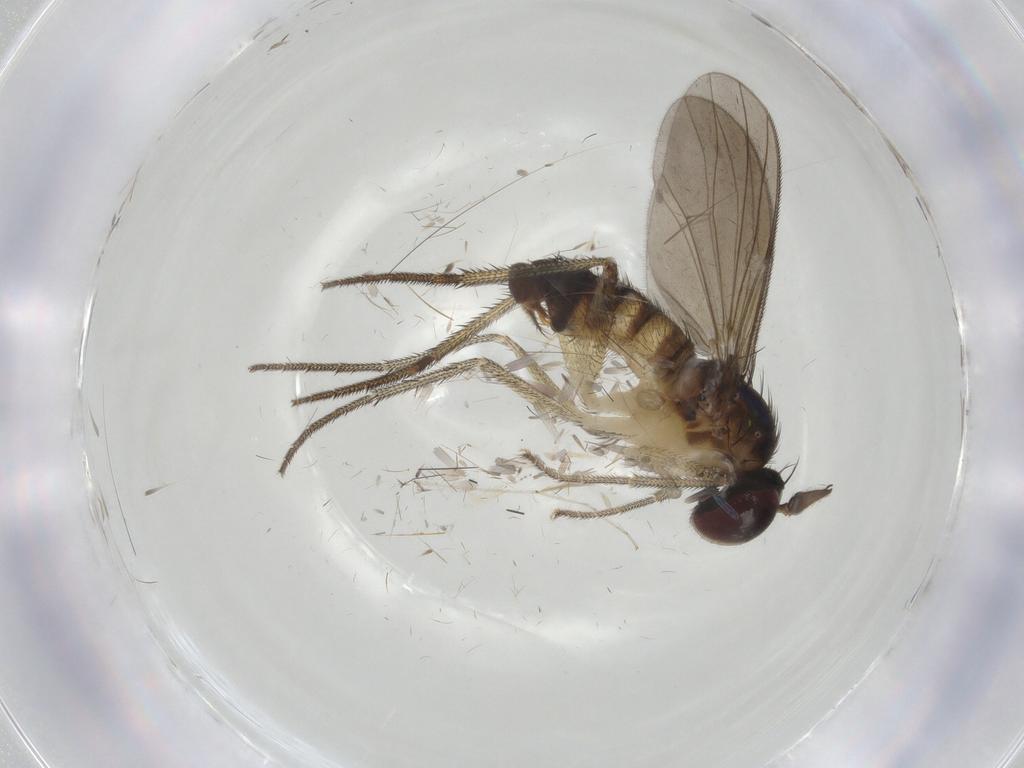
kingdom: Animalia
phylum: Arthropoda
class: Insecta
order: Diptera
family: Dolichopodidae
